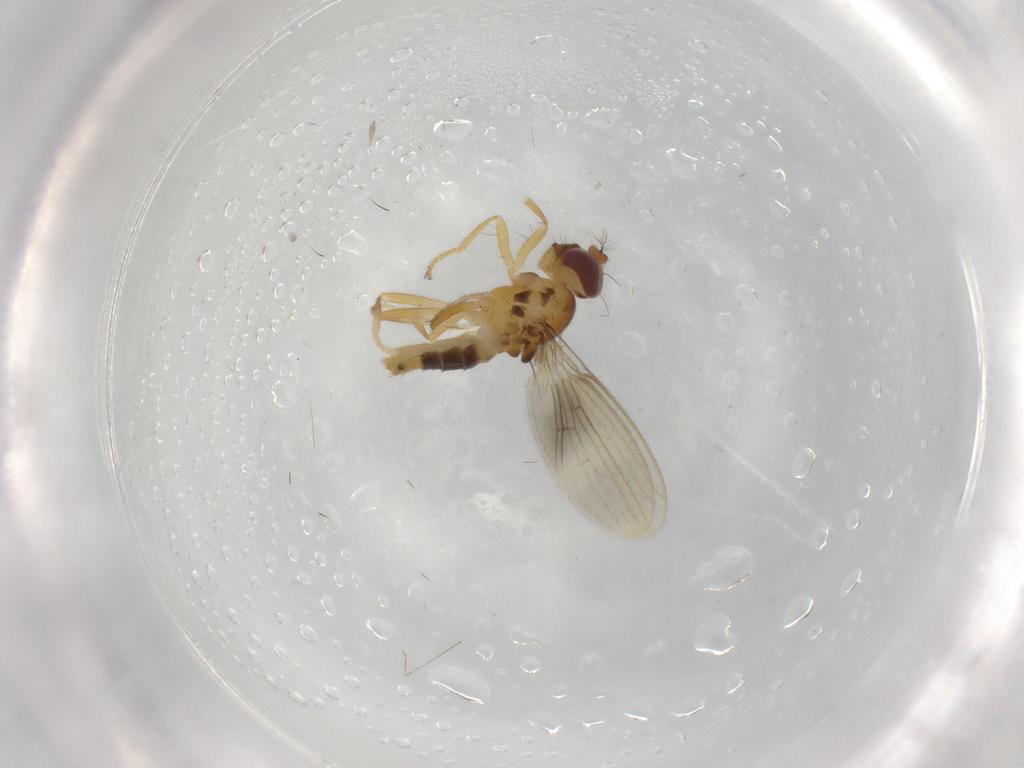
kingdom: Animalia
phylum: Arthropoda
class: Insecta
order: Diptera
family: Periscelididae
